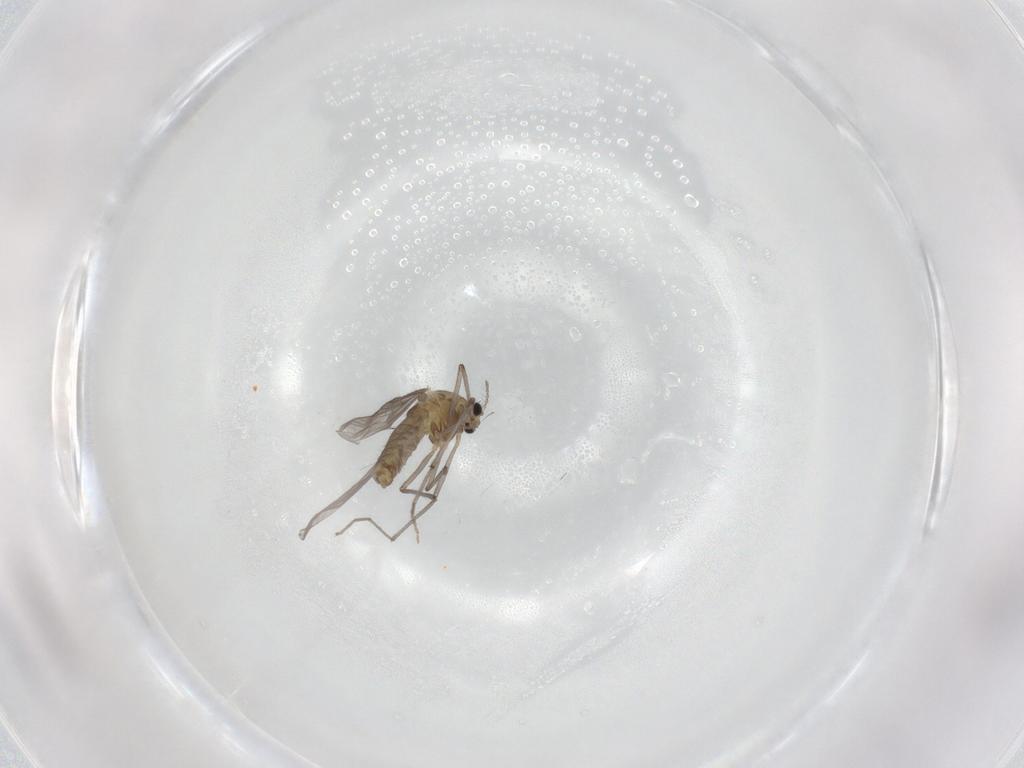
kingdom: Animalia
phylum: Arthropoda
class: Insecta
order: Diptera
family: Chironomidae
